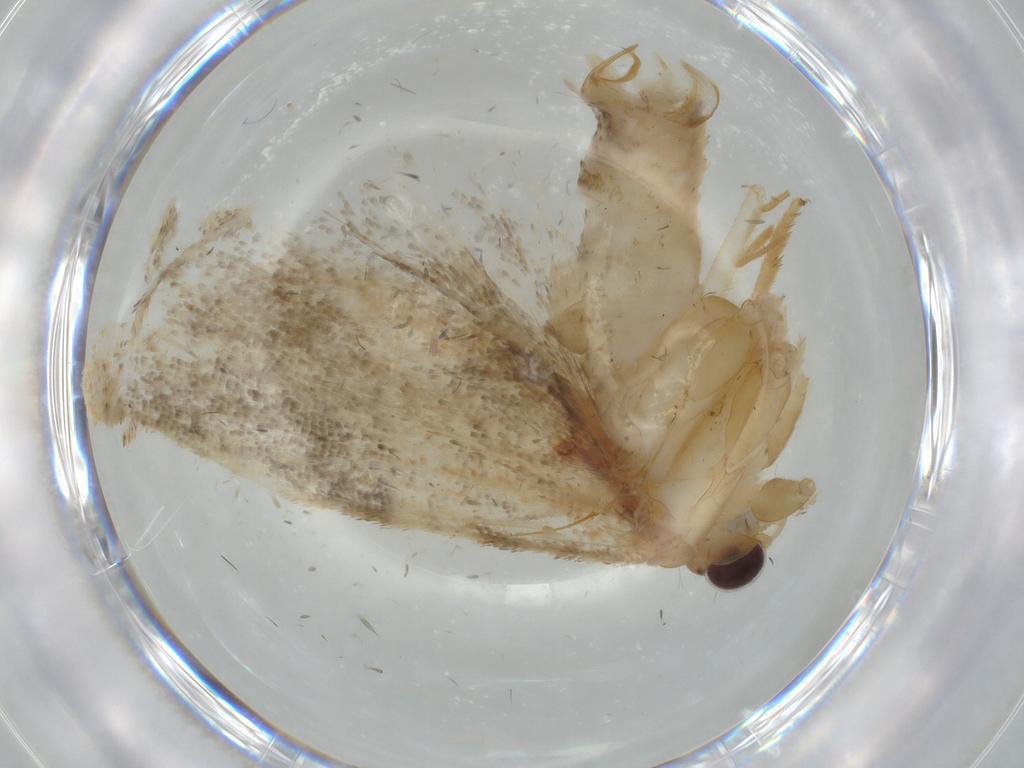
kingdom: Animalia
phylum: Arthropoda
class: Insecta
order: Lepidoptera
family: Tortricidae
